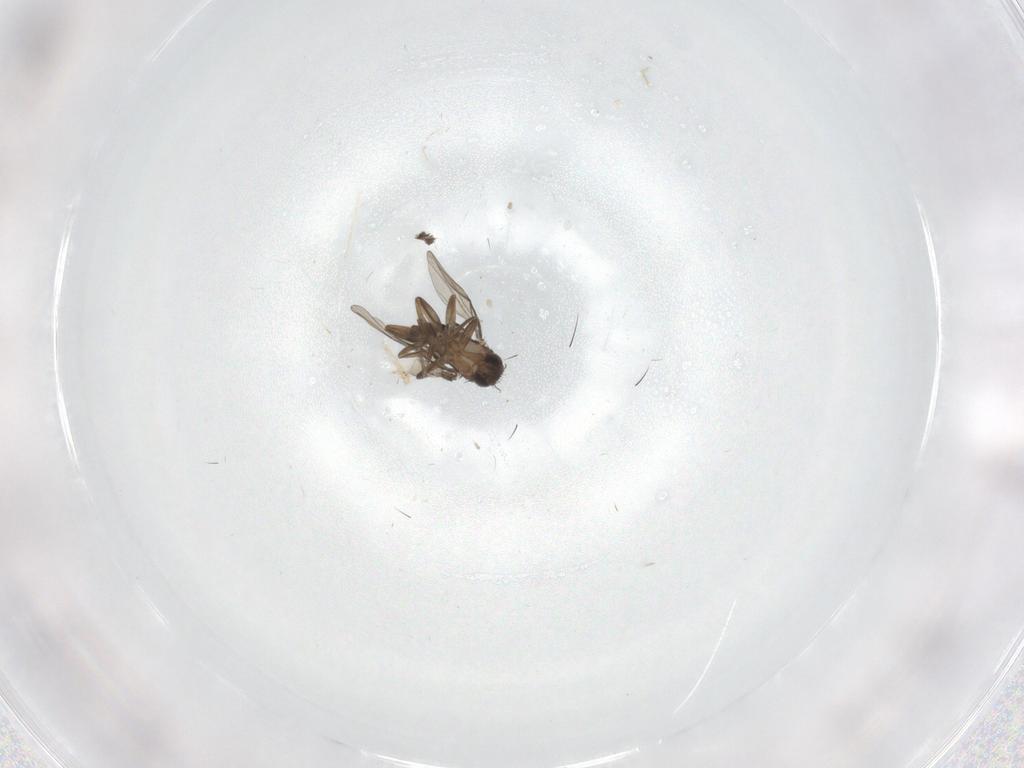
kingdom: Animalia
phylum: Arthropoda
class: Insecta
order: Diptera
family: Phoridae
